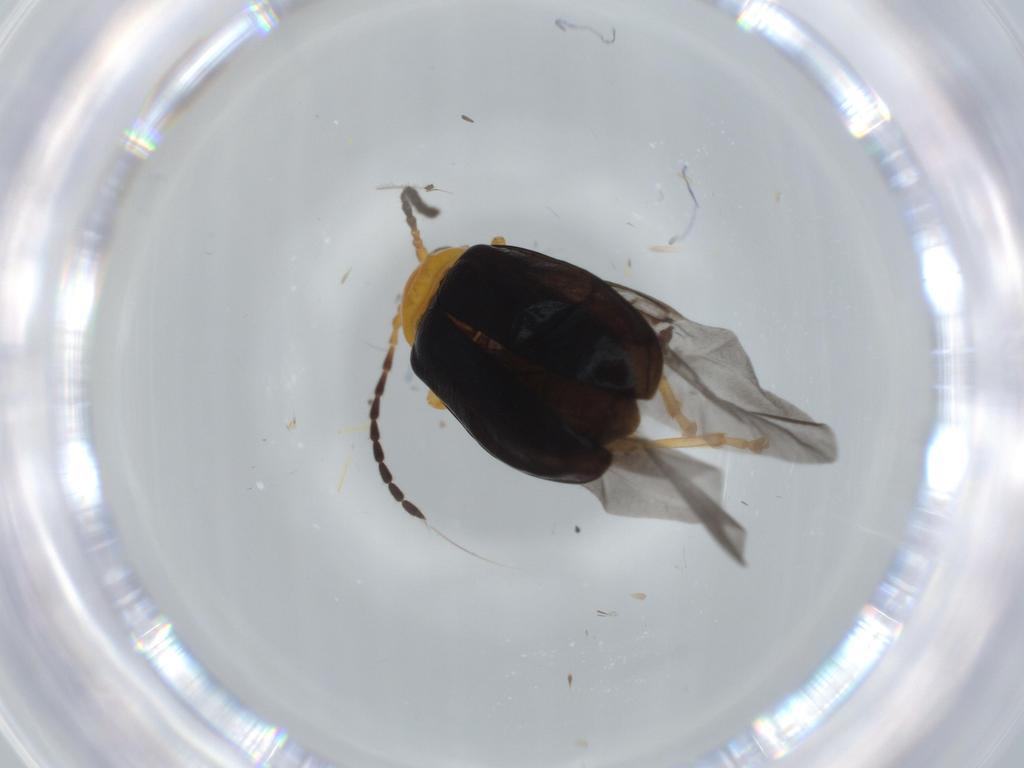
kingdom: Animalia
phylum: Arthropoda
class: Insecta
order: Coleoptera
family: Chrysomelidae
